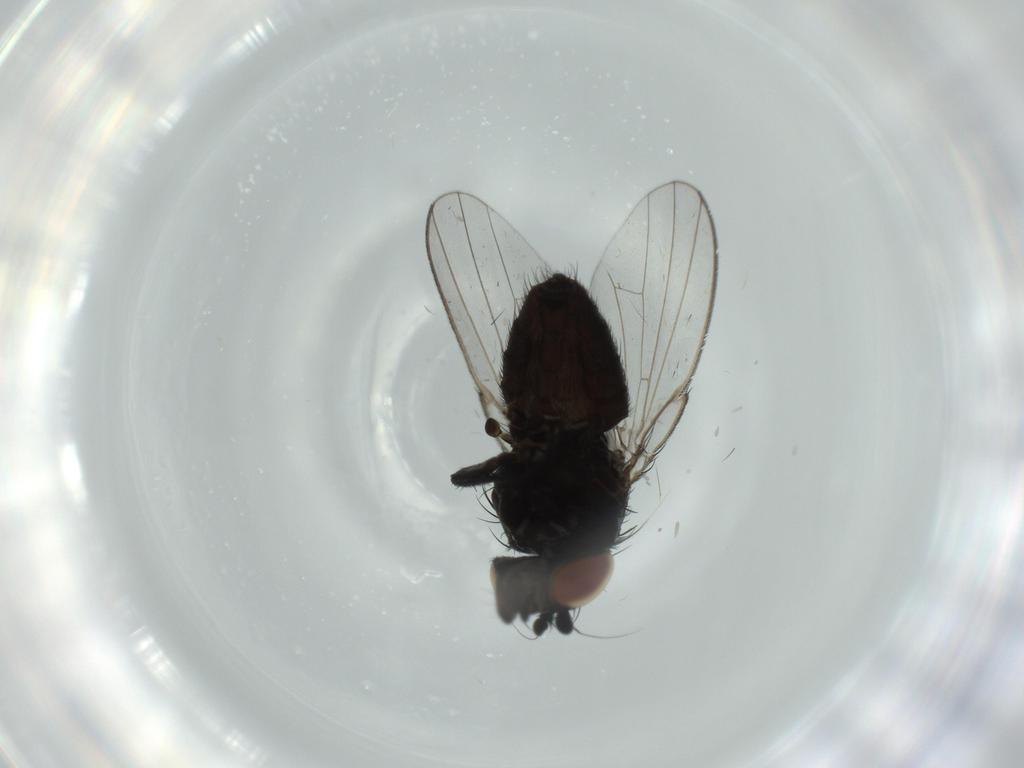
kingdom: Animalia
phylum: Arthropoda
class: Insecta
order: Diptera
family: Milichiidae
